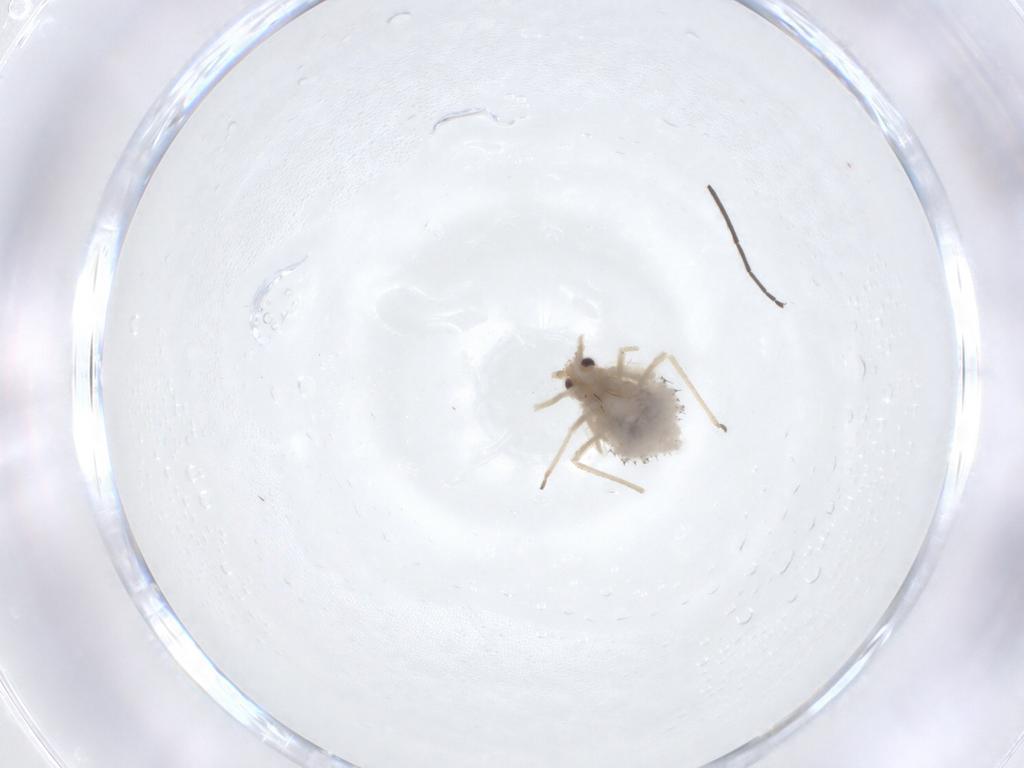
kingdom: Animalia
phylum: Arthropoda
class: Insecta
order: Hemiptera
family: Aphididae
